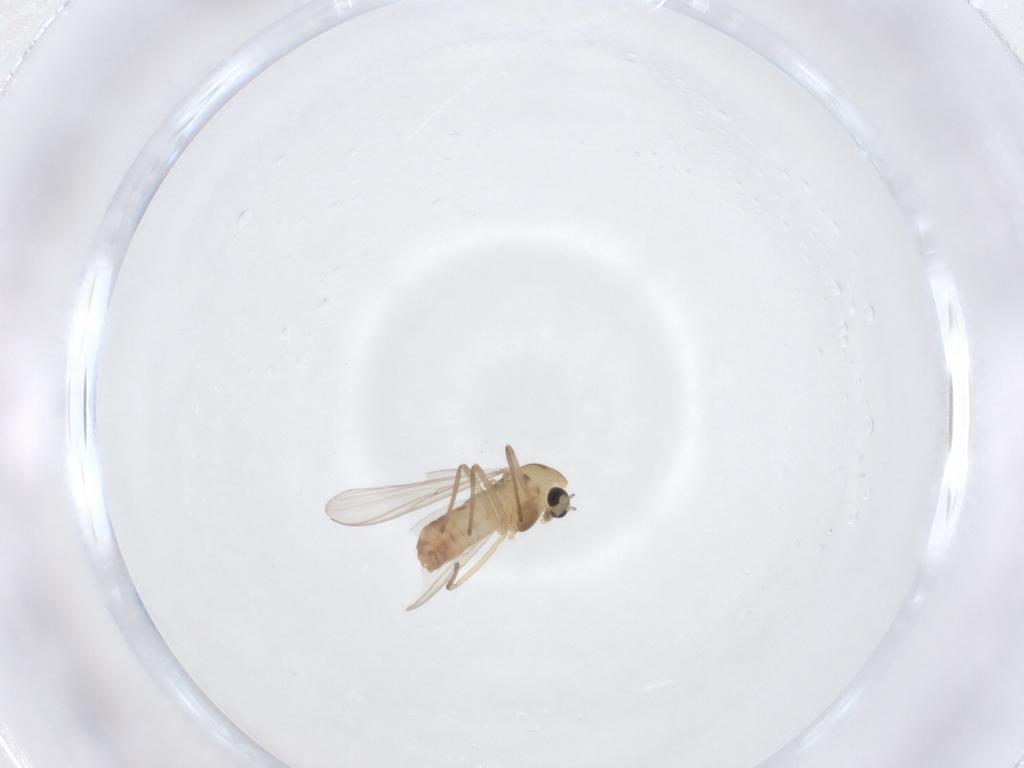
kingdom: Animalia
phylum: Arthropoda
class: Insecta
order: Diptera
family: Chironomidae
